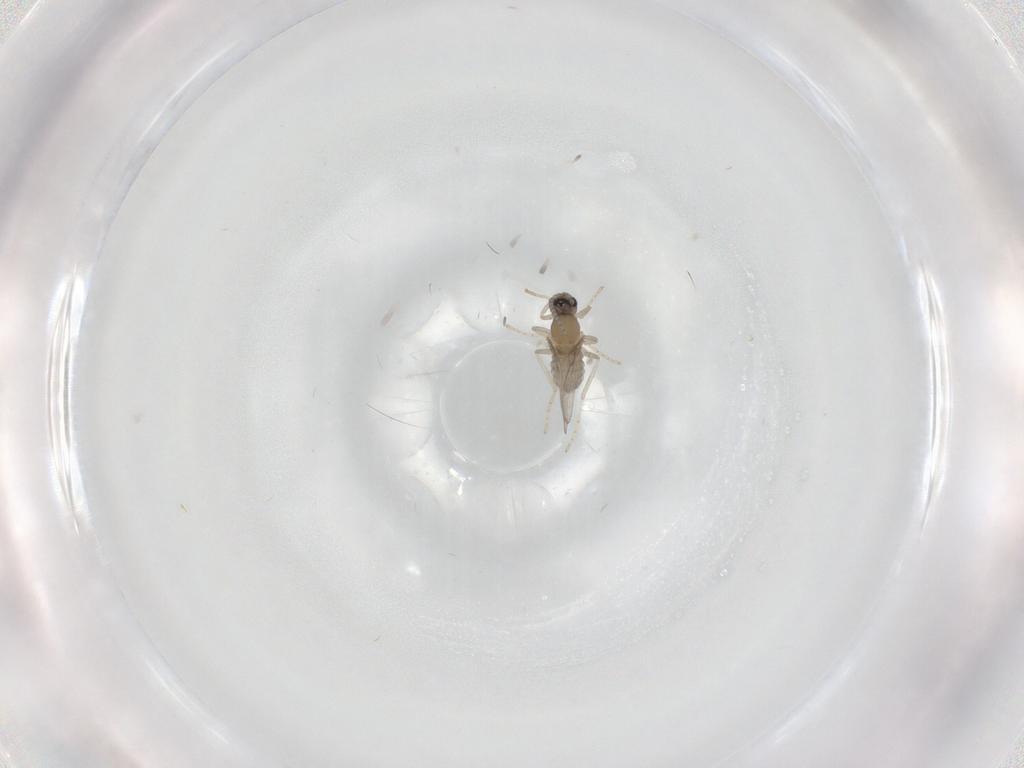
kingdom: Animalia
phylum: Arthropoda
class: Insecta
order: Diptera
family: Cecidomyiidae
